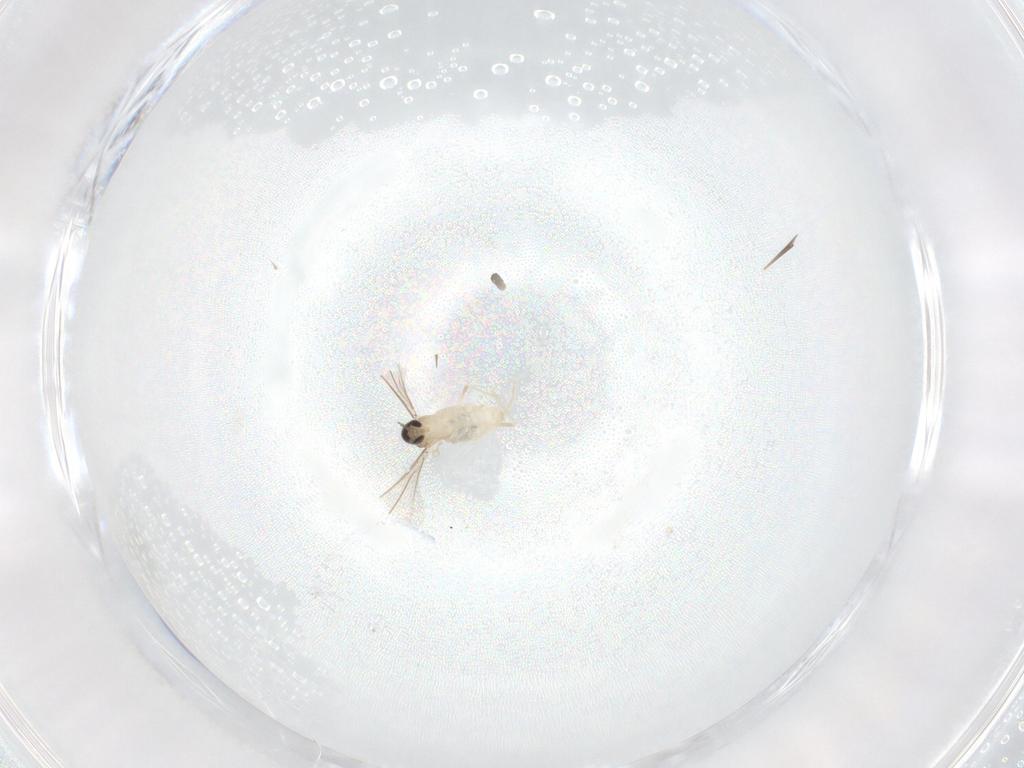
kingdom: Animalia
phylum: Arthropoda
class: Insecta
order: Diptera
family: Cecidomyiidae
